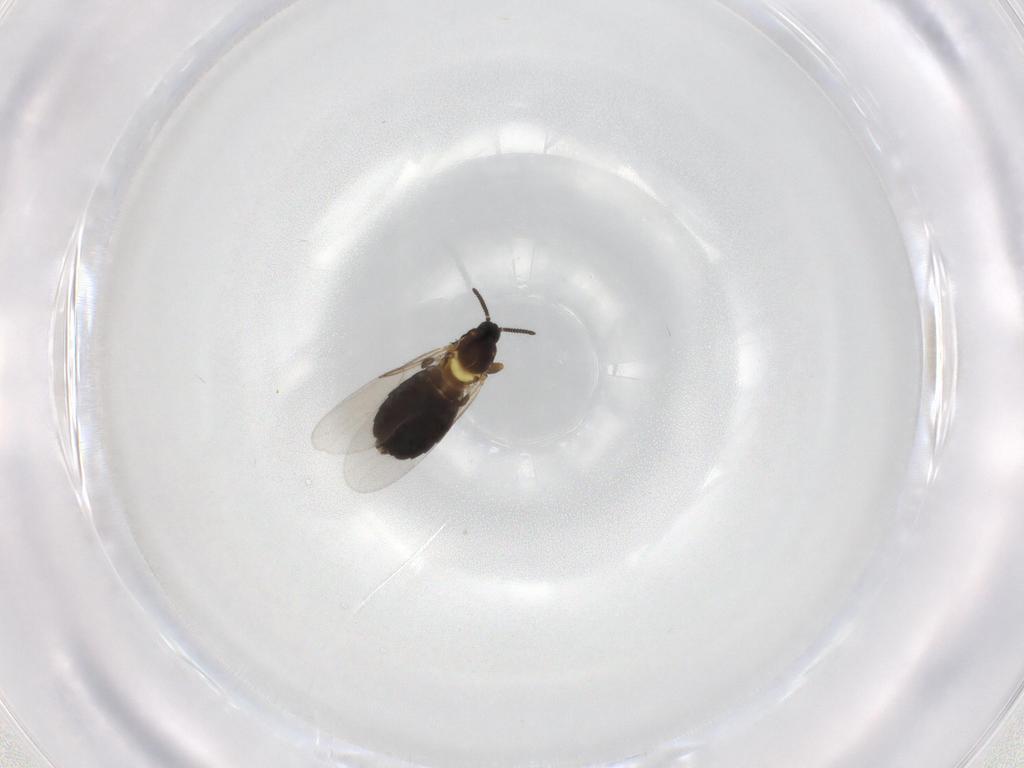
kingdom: Animalia
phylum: Arthropoda
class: Insecta
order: Diptera
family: Scatopsidae
